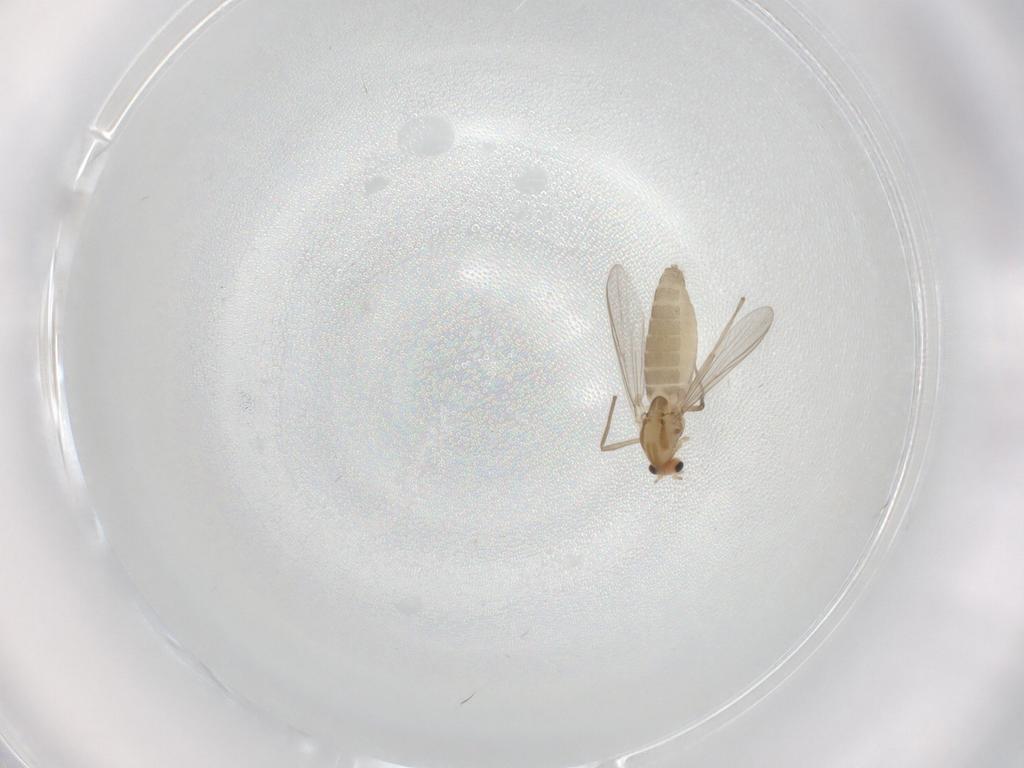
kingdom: Animalia
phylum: Arthropoda
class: Insecta
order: Diptera
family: Chironomidae
